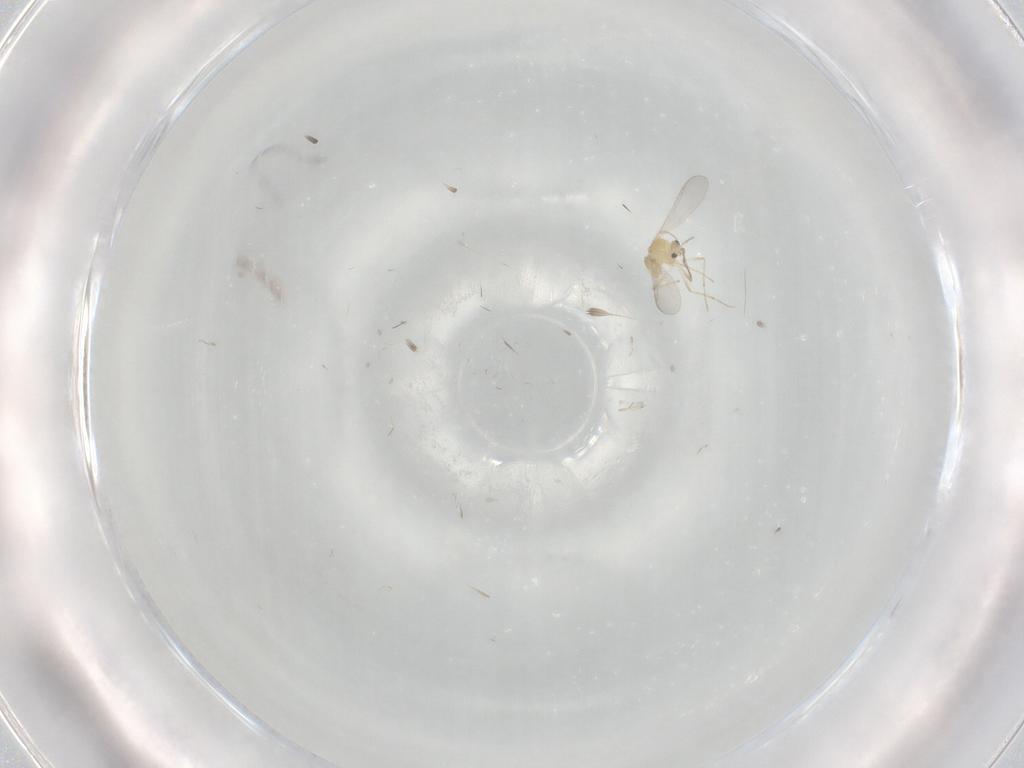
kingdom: Animalia
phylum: Arthropoda
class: Insecta
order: Diptera
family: Chironomidae
